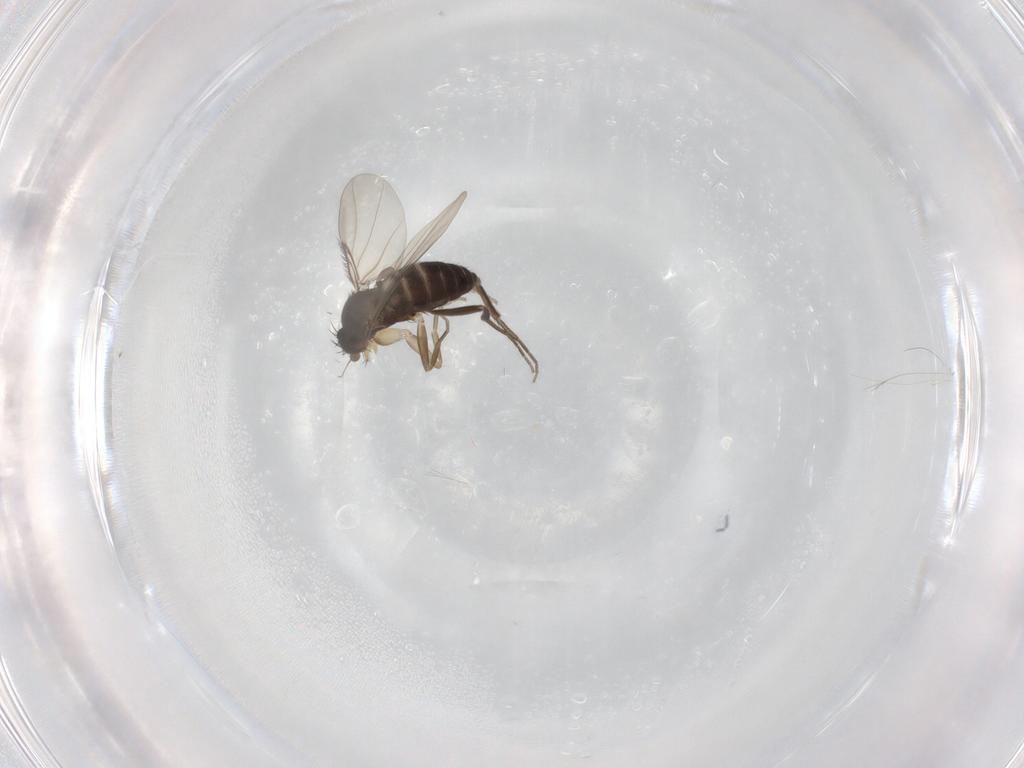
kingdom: Animalia
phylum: Arthropoda
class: Insecta
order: Diptera
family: Phoridae
